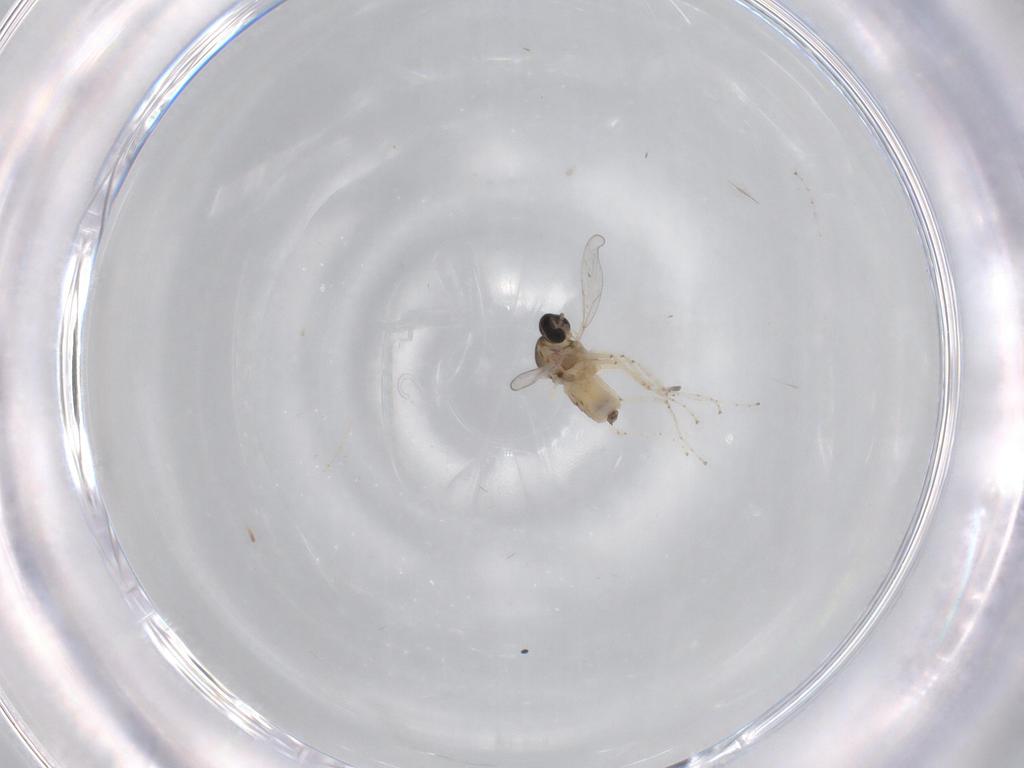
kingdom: Animalia
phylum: Arthropoda
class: Insecta
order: Diptera
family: Cecidomyiidae
